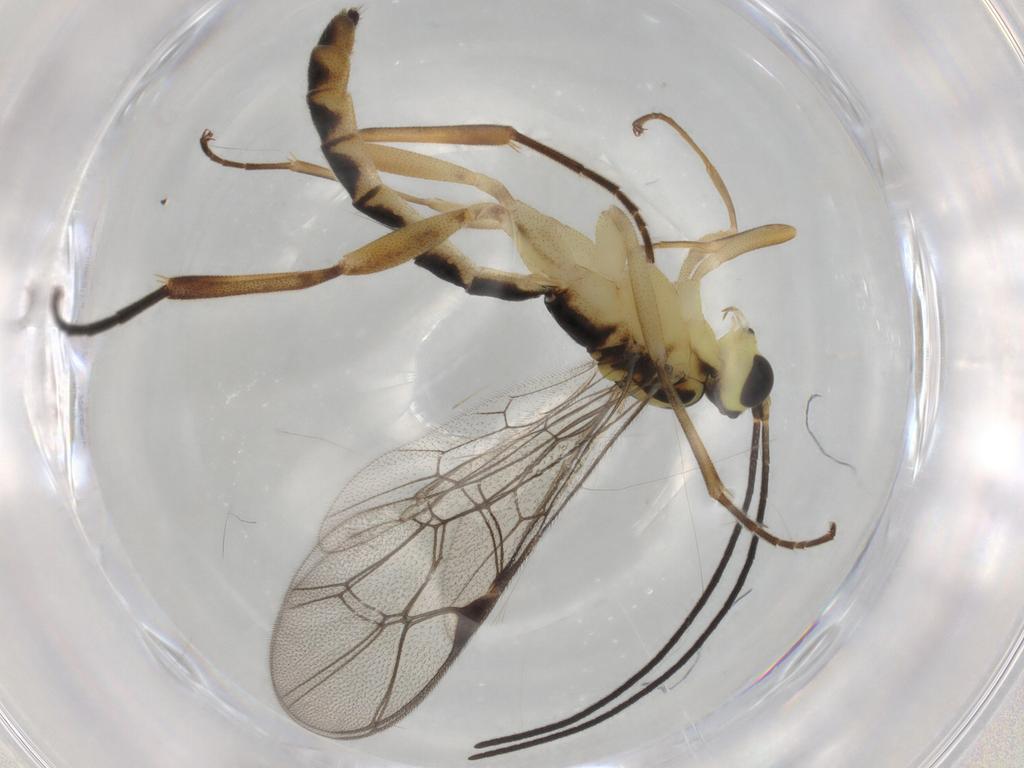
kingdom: Animalia
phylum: Arthropoda
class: Insecta
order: Hymenoptera
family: Ichneumonidae
